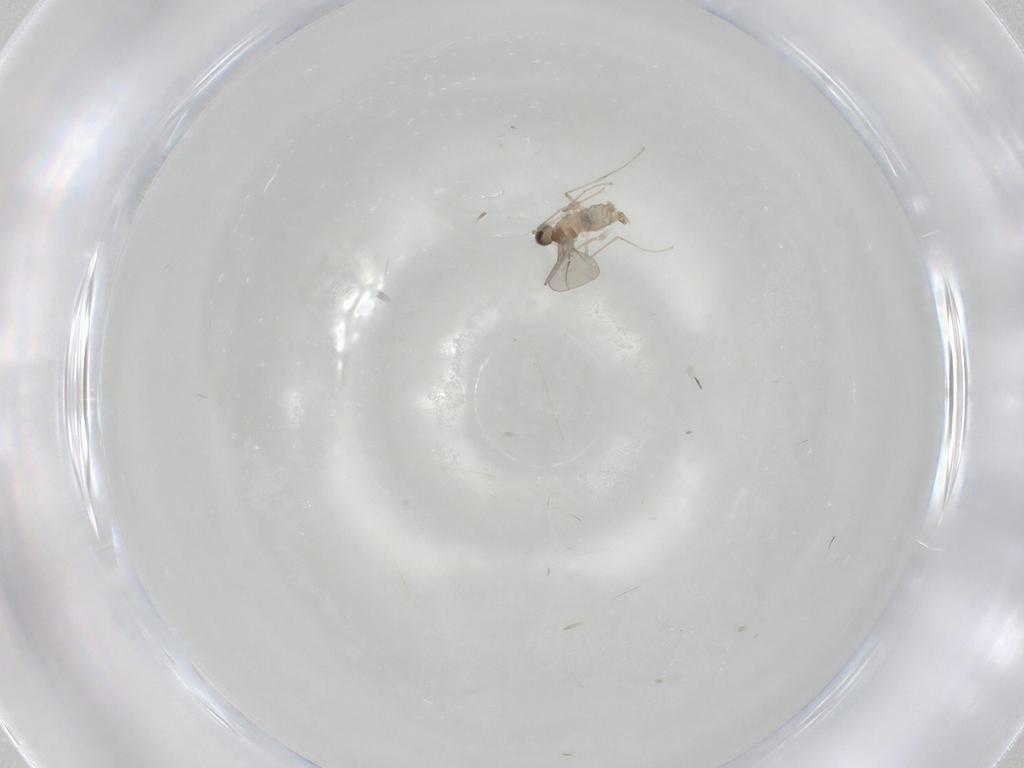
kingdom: Animalia
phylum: Arthropoda
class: Insecta
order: Diptera
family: Cecidomyiidae
